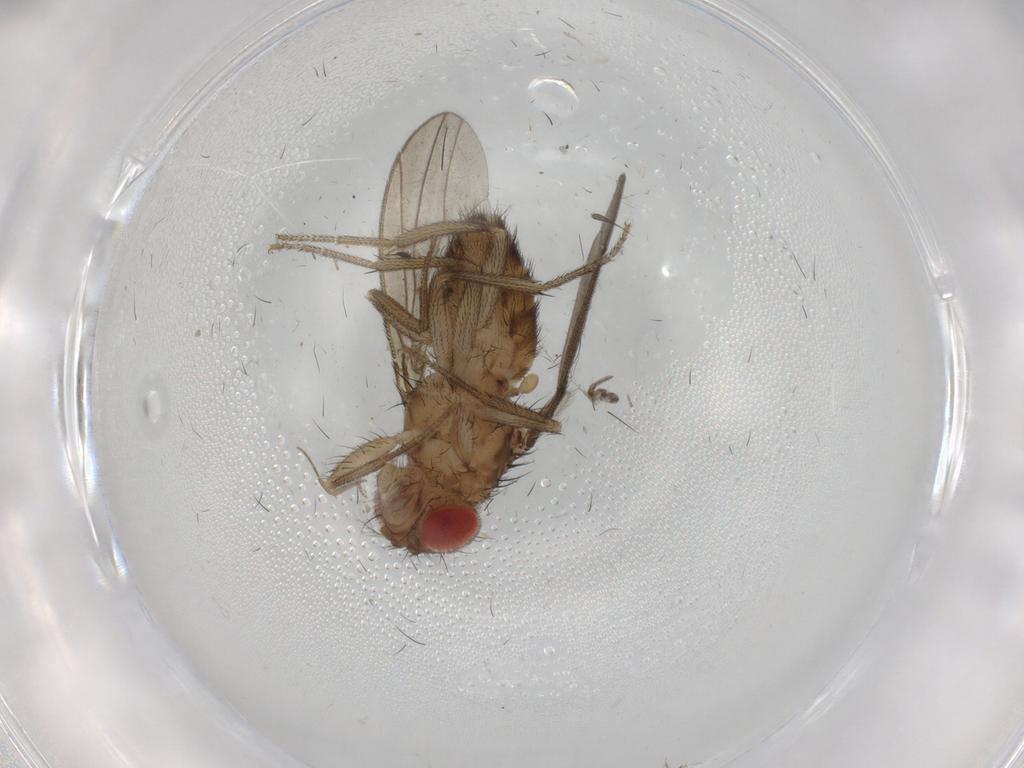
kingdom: Animalia
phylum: Arthropoda
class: Insecta
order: Diptera
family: Drosophilidae
